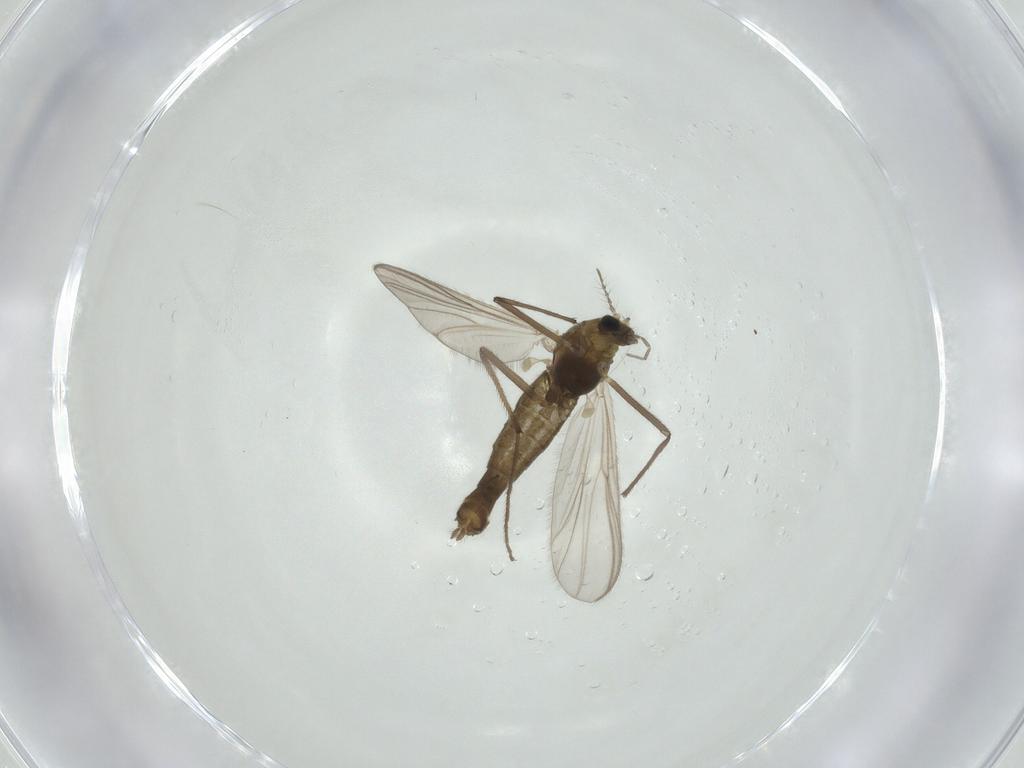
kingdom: Animalia
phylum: Arthropoda
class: Insecta
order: Diptera
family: Sciaridae
